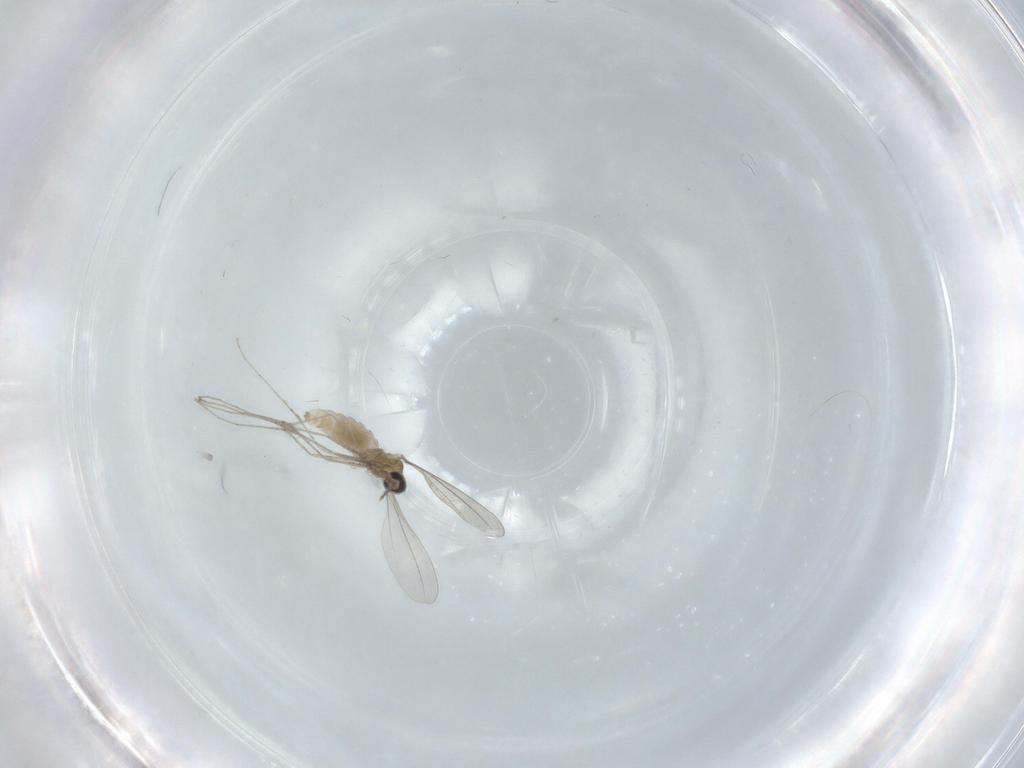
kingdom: Animalia
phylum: Arthropoda
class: Insecta
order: Diptera
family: Cecidomyiidae
